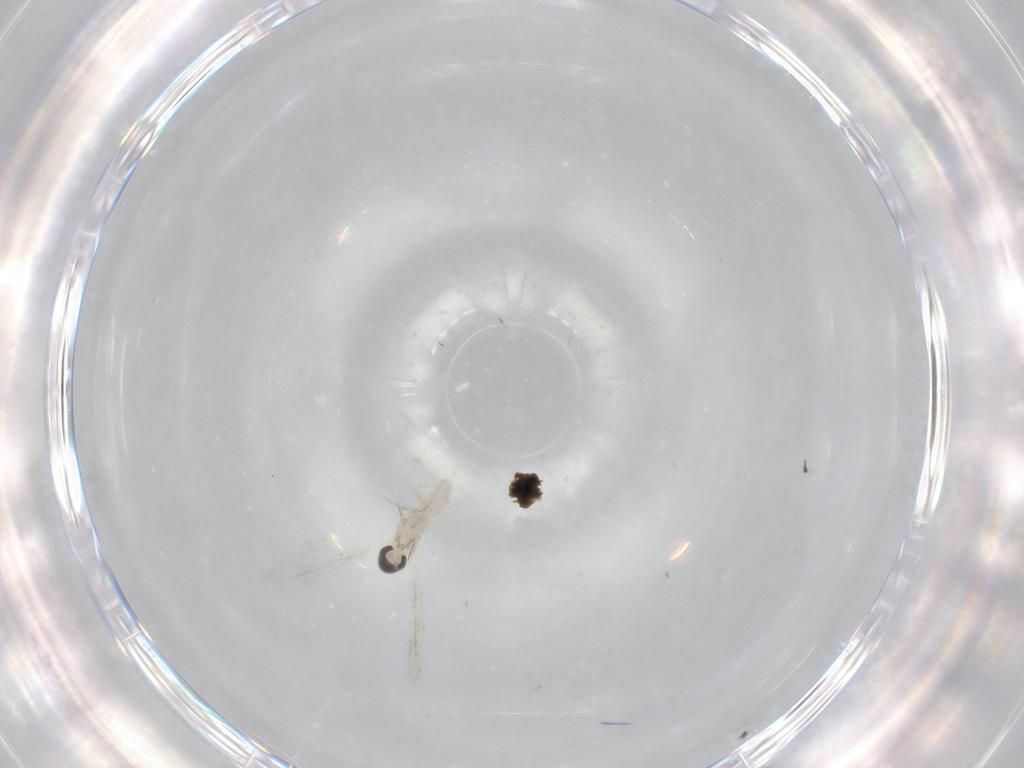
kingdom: Animalia
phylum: Arthropoda
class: Insecta
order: Diptera
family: Cecidomyiidae
